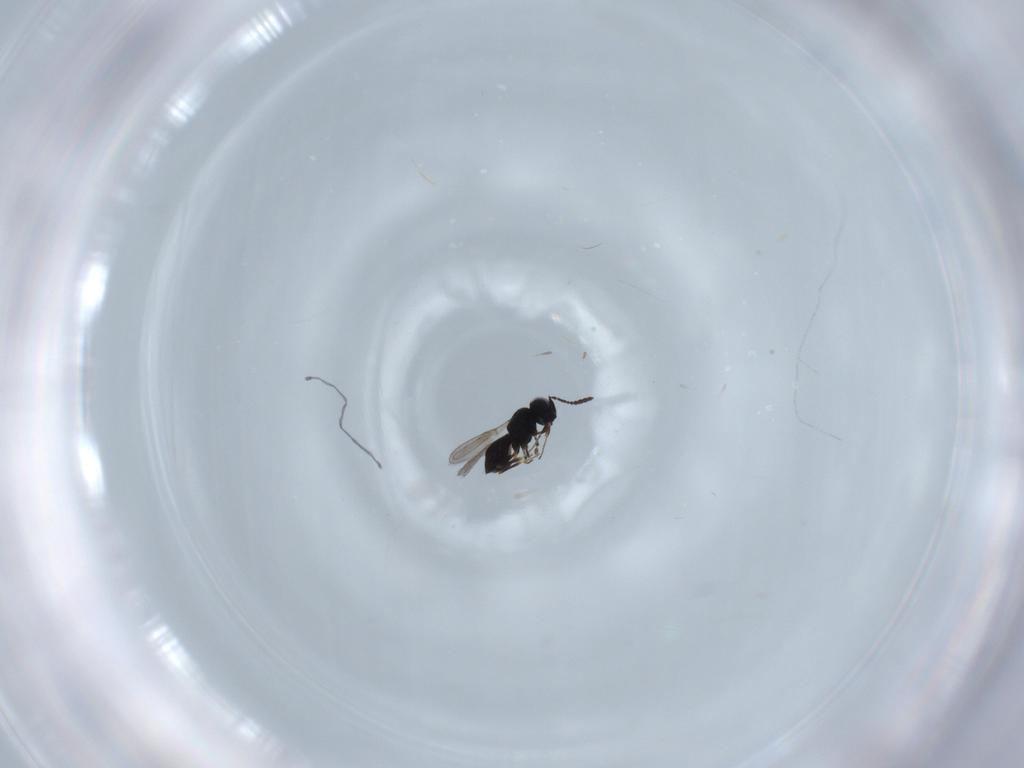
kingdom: Animalia
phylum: Arthropoda
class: Insecta
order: Hymenoptera
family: Scelionidae
